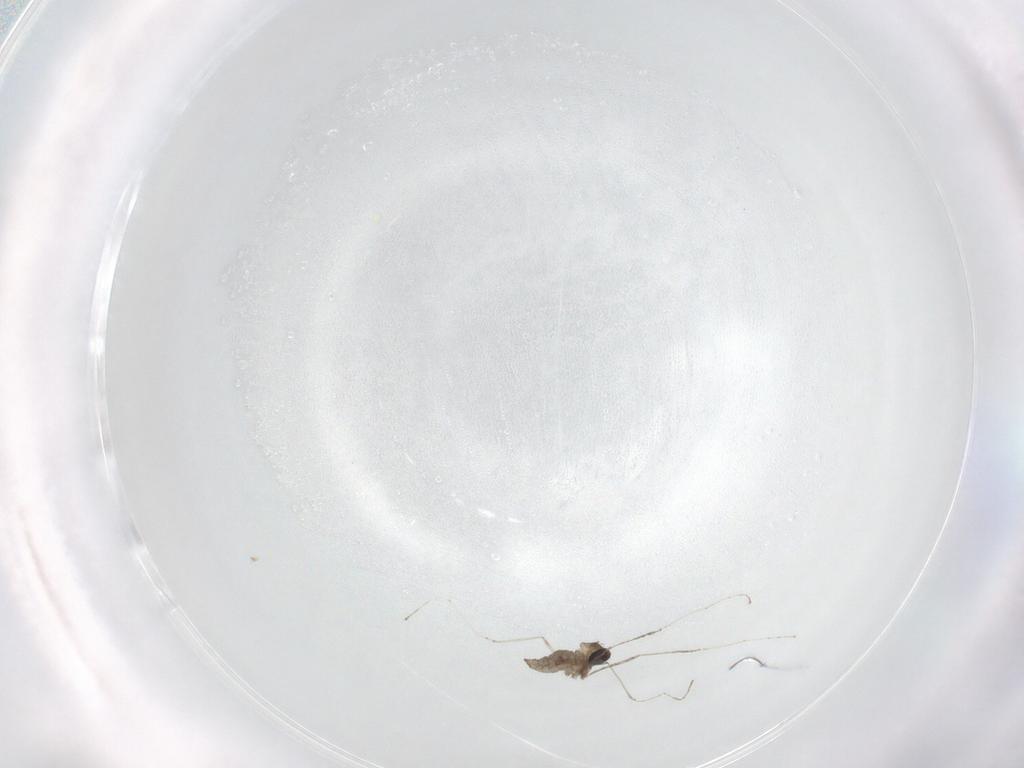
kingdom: Animalia
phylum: Arthropoda
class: Insecta
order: Diptera
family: Cecidomyiidae
